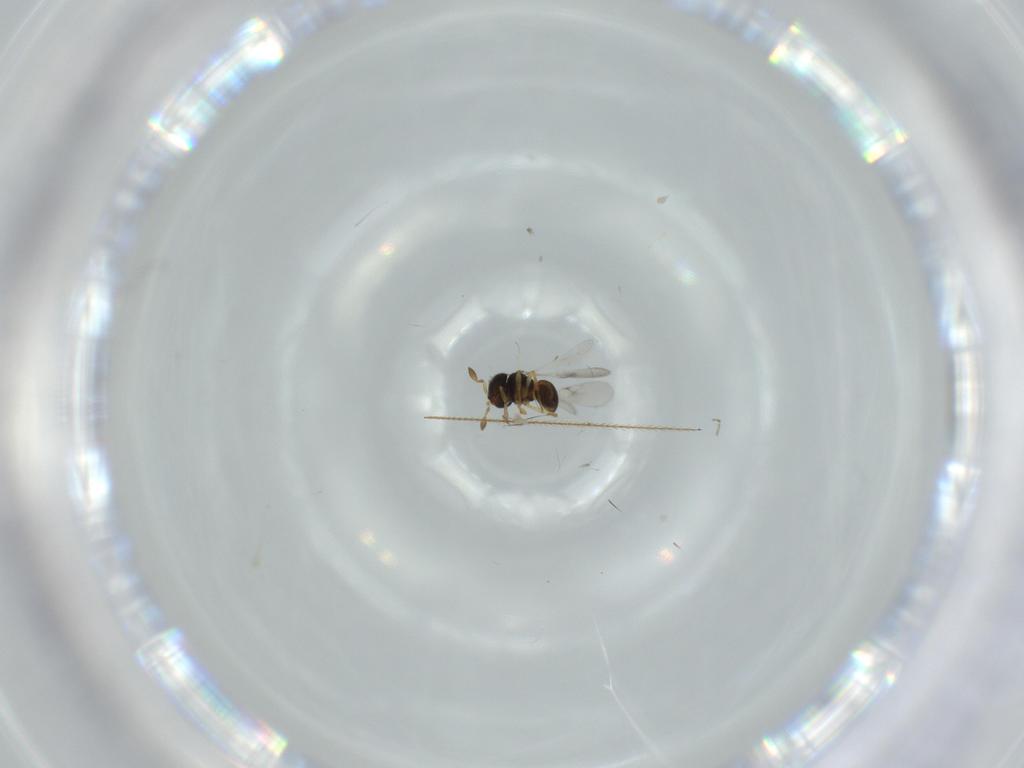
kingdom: Animalia
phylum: Arthropoda
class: Insecta
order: Hymenoptera
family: Scelionidae
